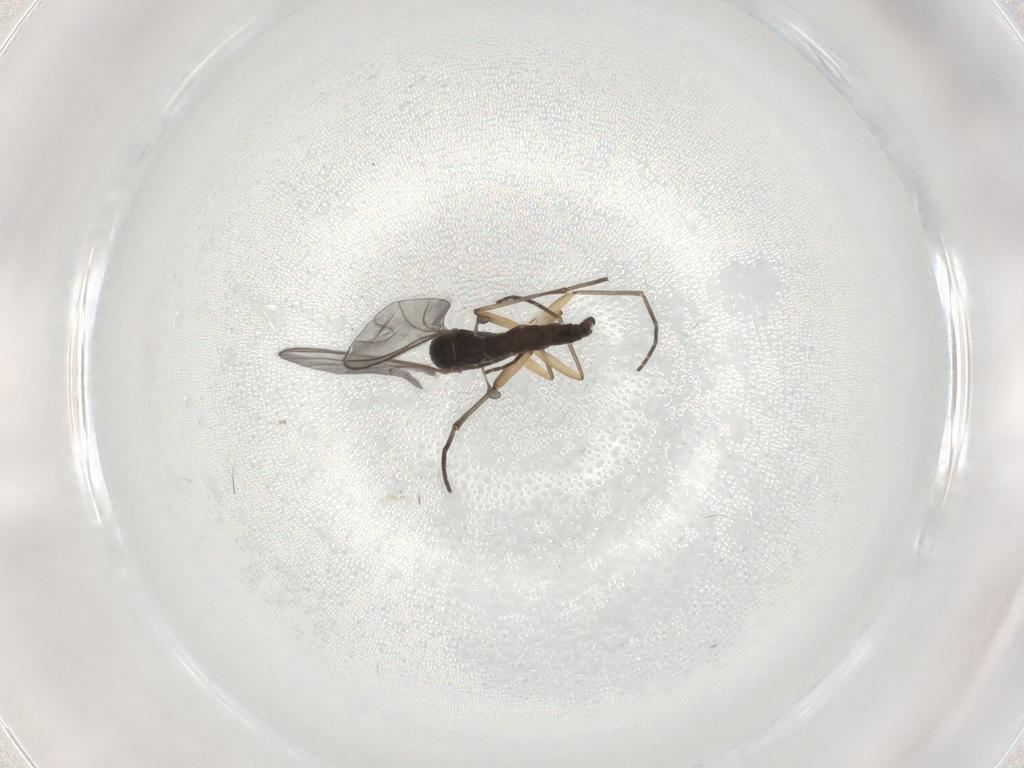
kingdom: Animalia
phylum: Arthropoda
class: Insecta
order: Diptera
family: Sciaridae
